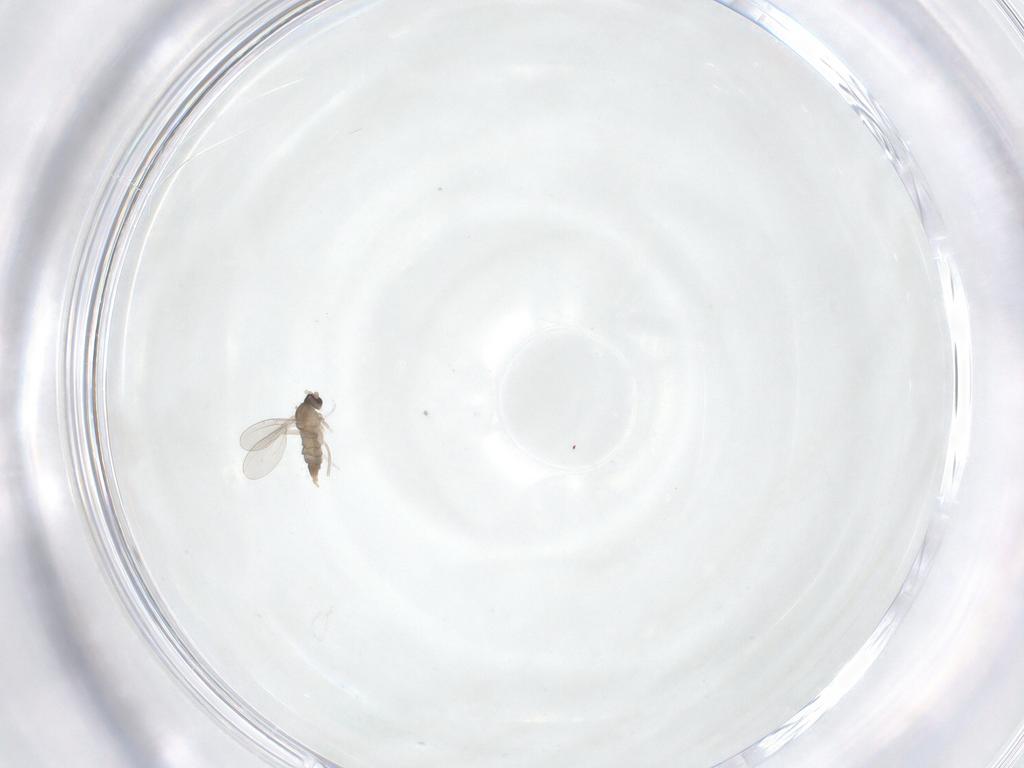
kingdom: Animalia
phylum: Arthropoda
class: Insecta
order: Diptera
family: Cecidomyiidae
